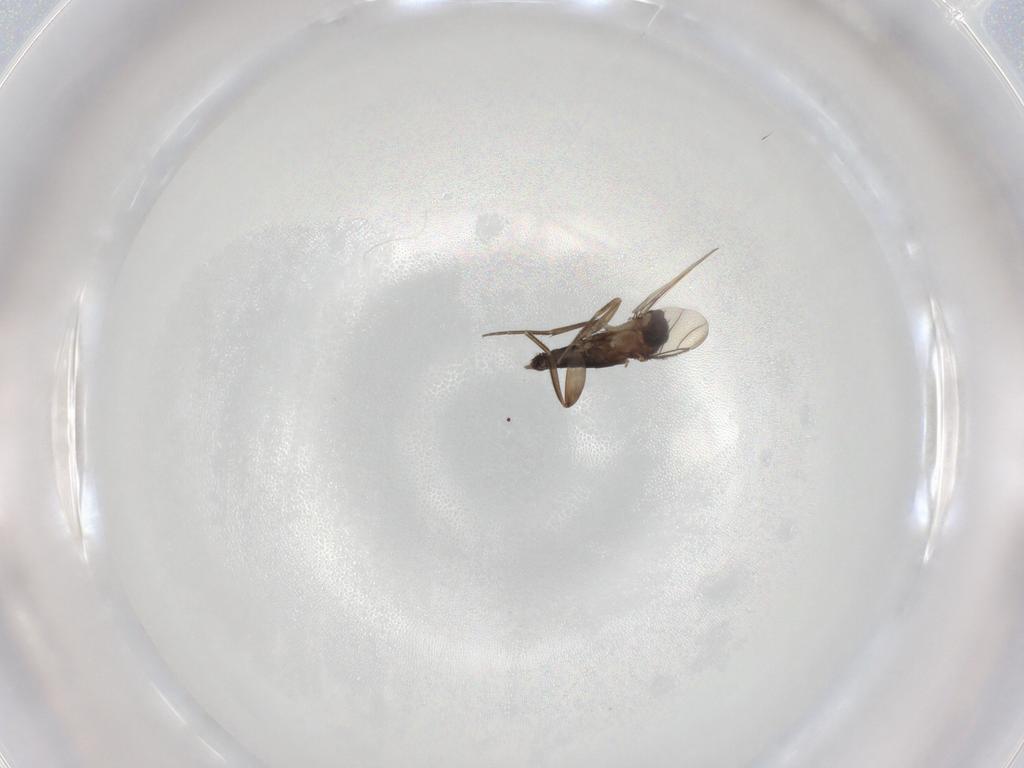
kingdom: Animalia
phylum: Arthropoda
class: Insecta
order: Diptera
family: Phoridae
